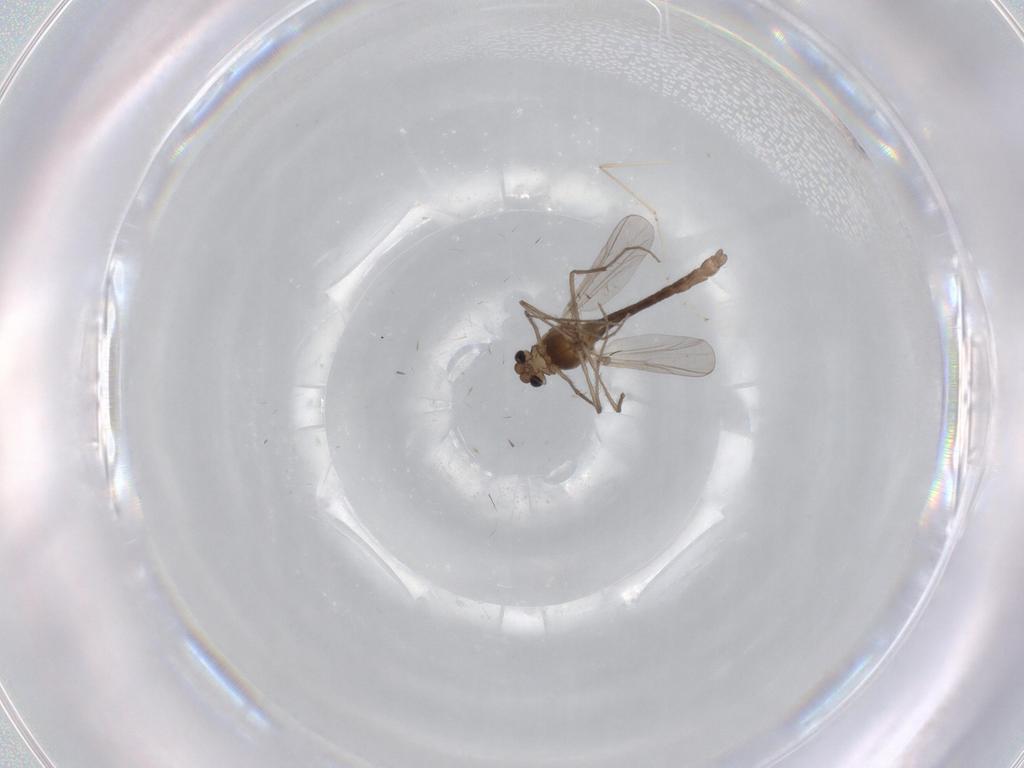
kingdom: Animalia
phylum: Arthropoda
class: Insecta
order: Diptera
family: Chironomidae
